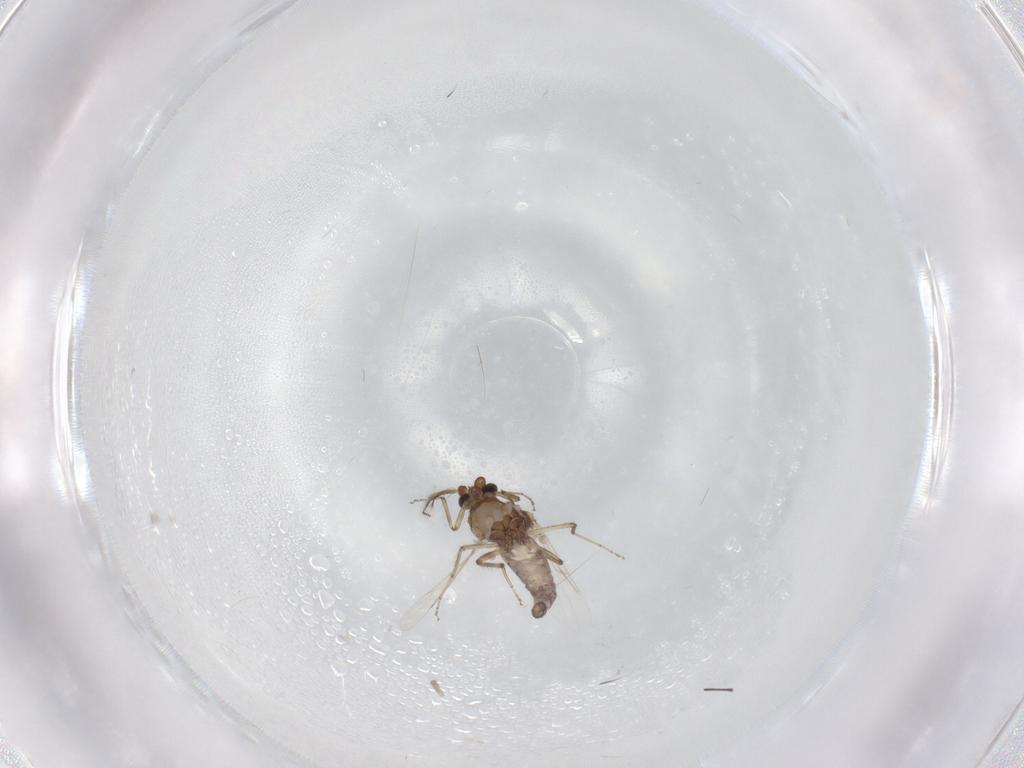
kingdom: Animalia
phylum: Arthropoda
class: Insecta
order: Diptera
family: Ceratopogonidae
